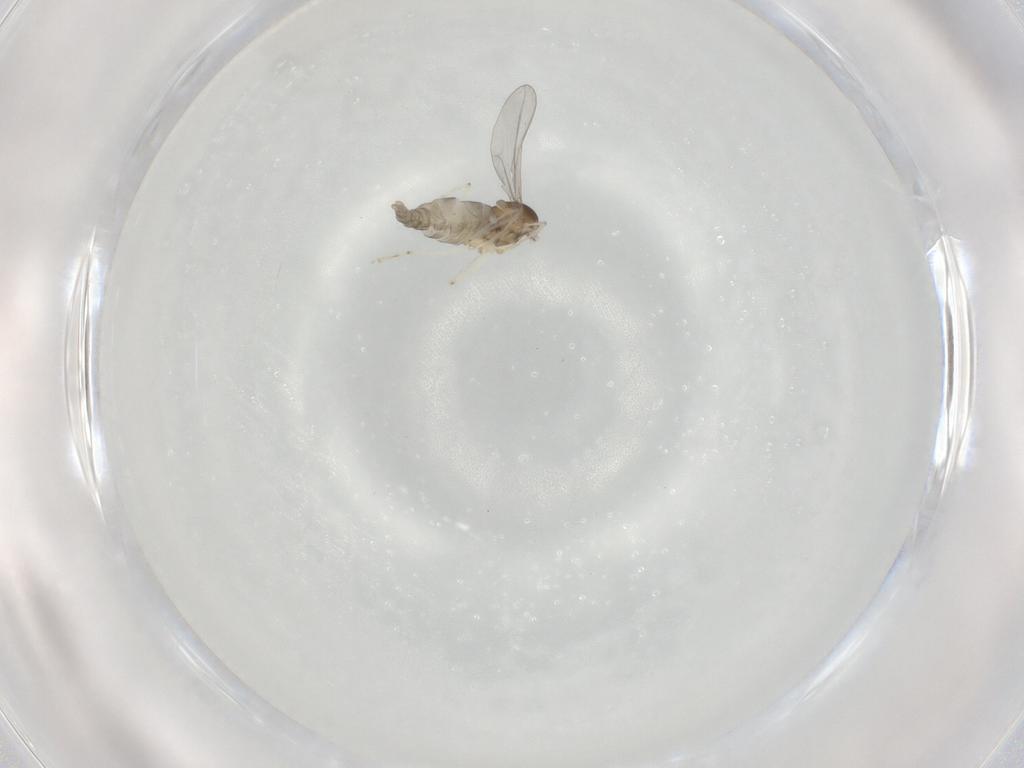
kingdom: Animalia
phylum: Arthropoda
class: Insecta
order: Diptera
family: Cecidomyiidae
